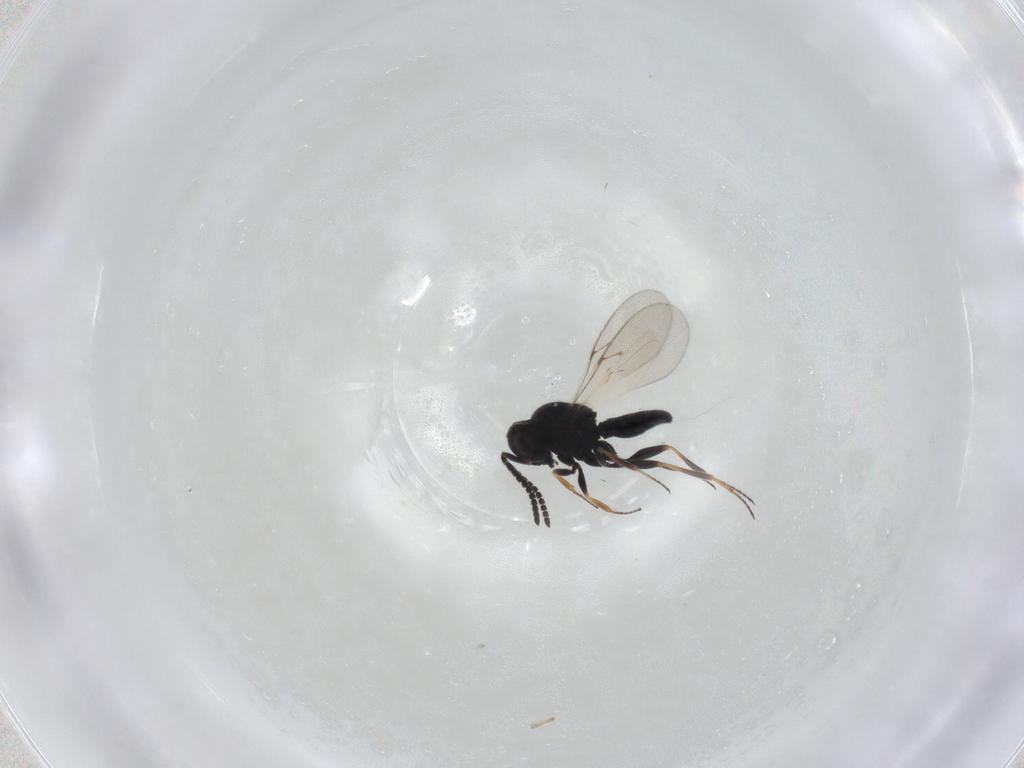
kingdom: Animalia
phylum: Arthropoda
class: Insecta
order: Hymenoptera
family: Scelionidae
